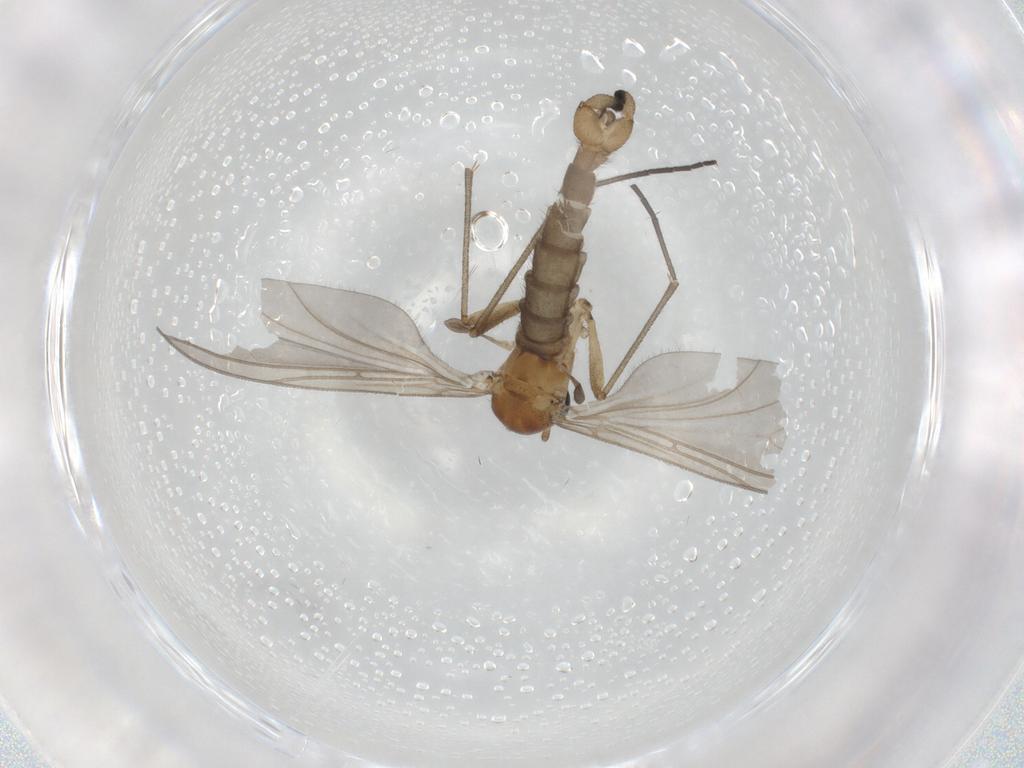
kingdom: Animalia
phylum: Arthropoda
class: Insecta
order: Diptera
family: Sciaridae
